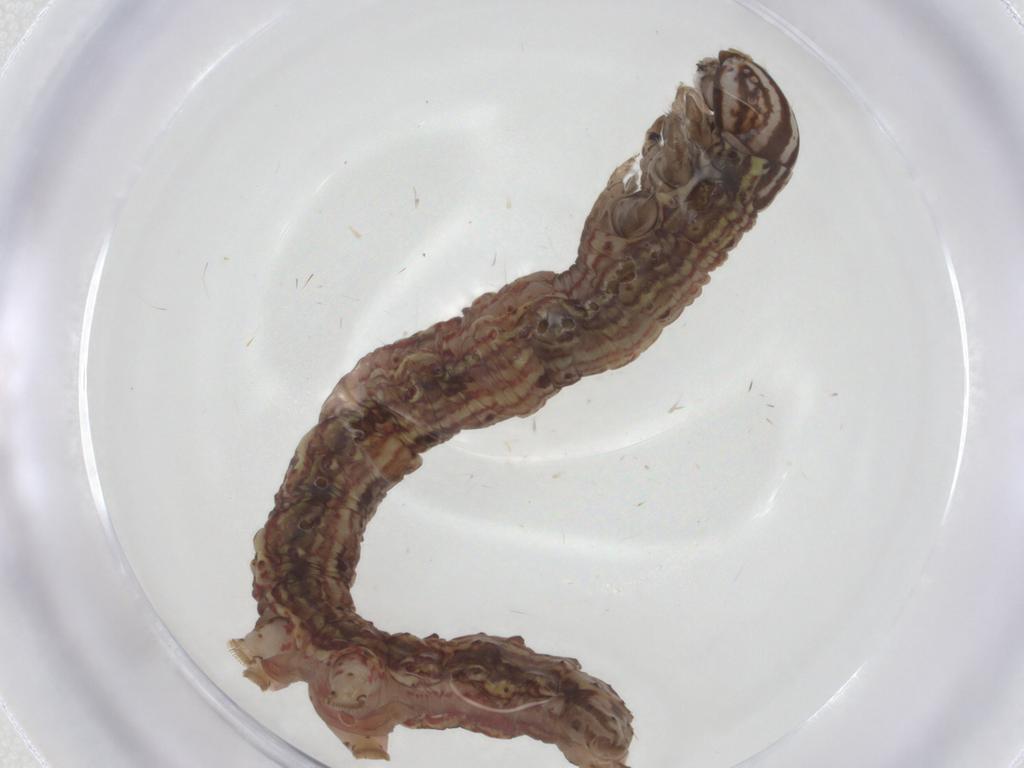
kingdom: Animalia
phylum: Arthropoda
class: Insecta
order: Lepidoptera
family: Erebidae
